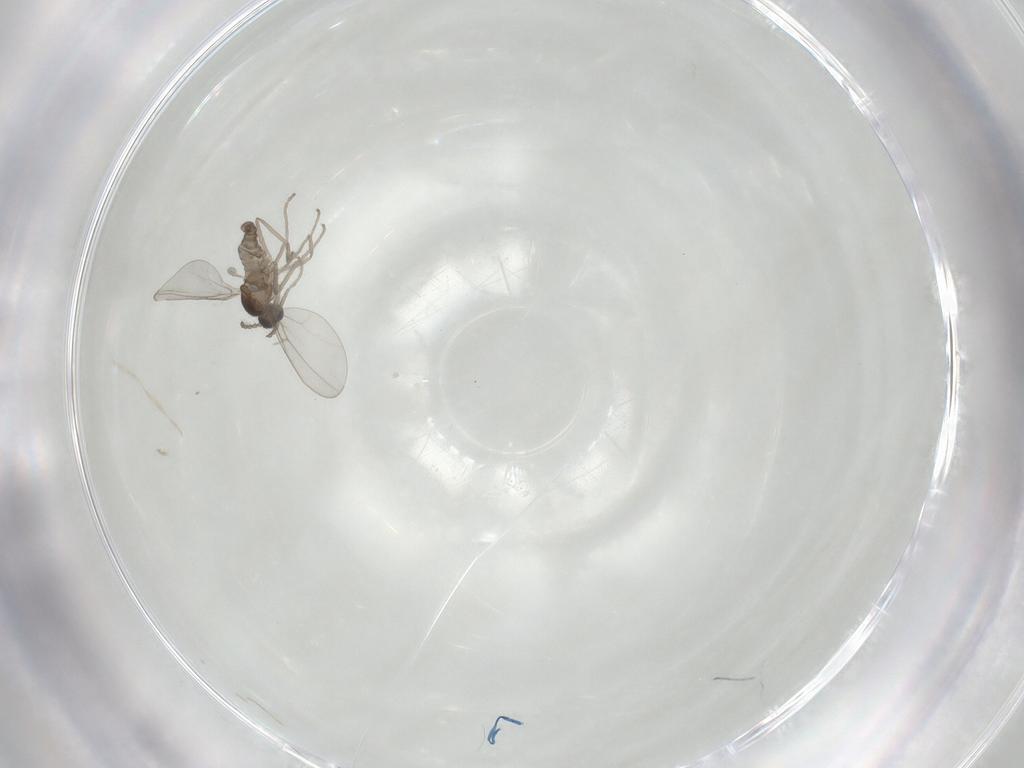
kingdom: Animalia
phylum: Arthropoda
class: Insecta
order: Diptera
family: Cecidomyiidae
